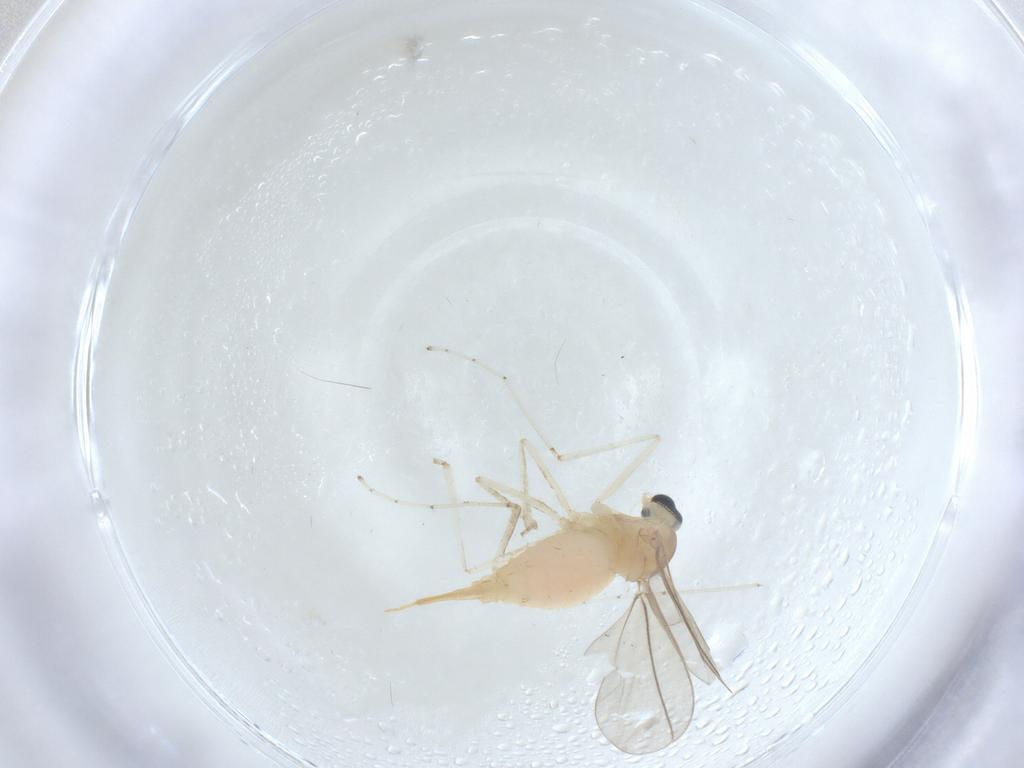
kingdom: Animalia
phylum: Arthropoda
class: Insecta
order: Diptera
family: Cecidomyiidae
